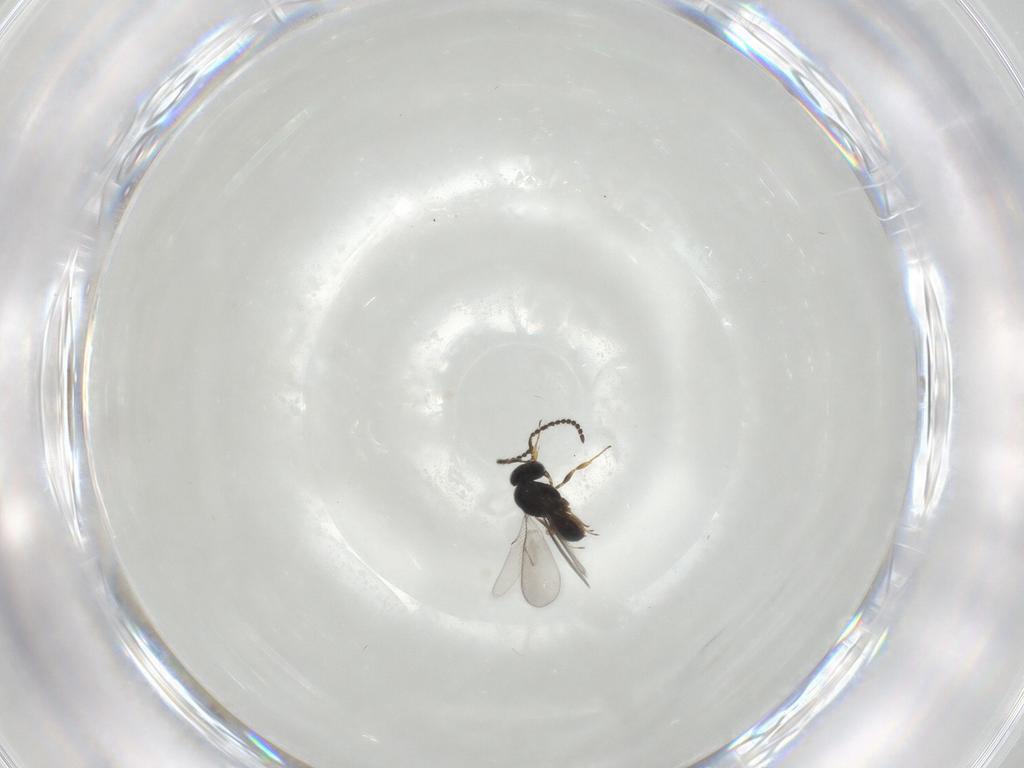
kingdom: Animalia
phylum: Arthropoda
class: Insecta
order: Hymenoptera
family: Scelionidae
